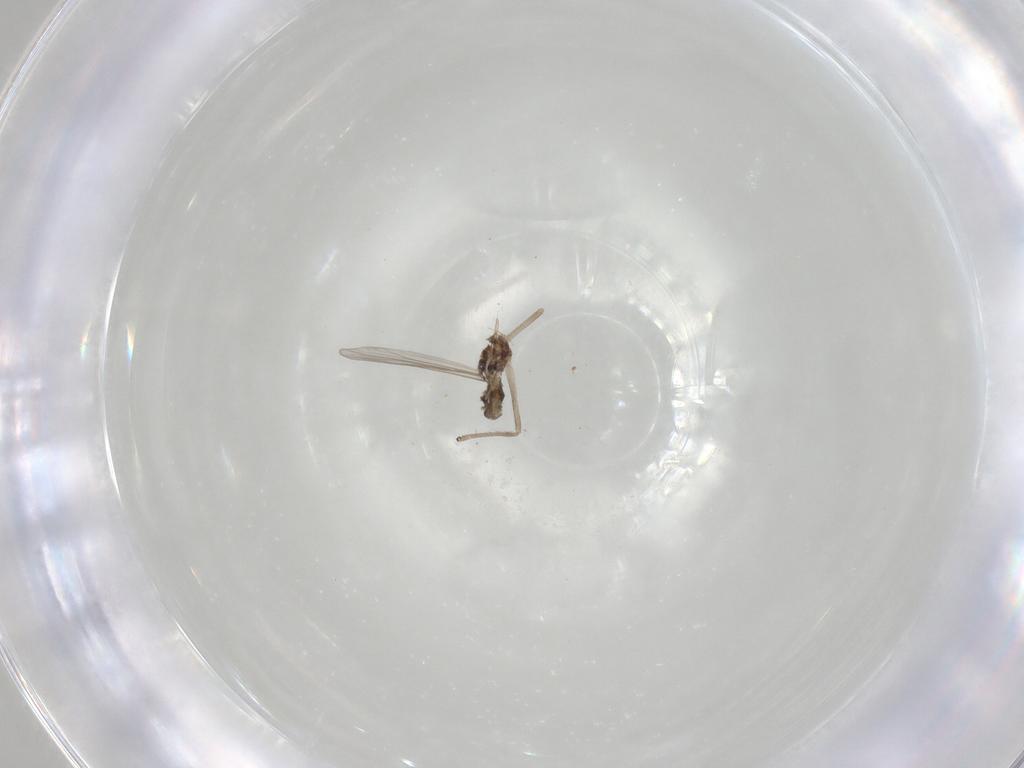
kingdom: Animalia
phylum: Arthropoda
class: Insecta
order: Diptera
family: Chironomidae
